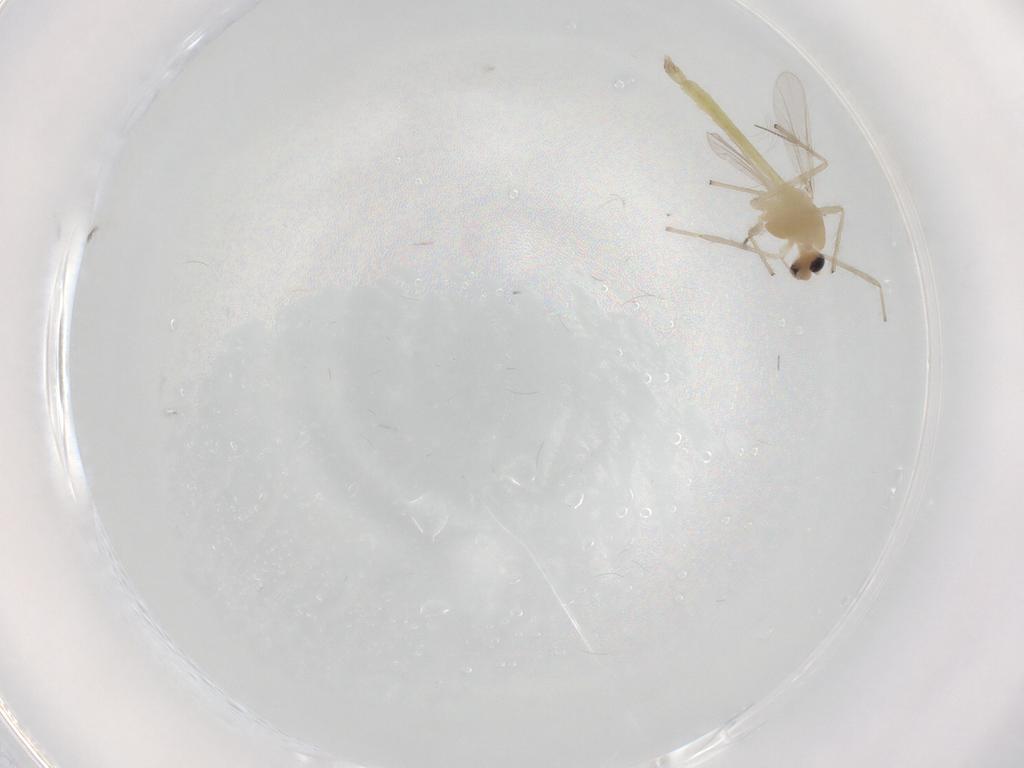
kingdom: Animalia
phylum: Arthropoda
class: Insecta
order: Diptera
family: Chironomidae
